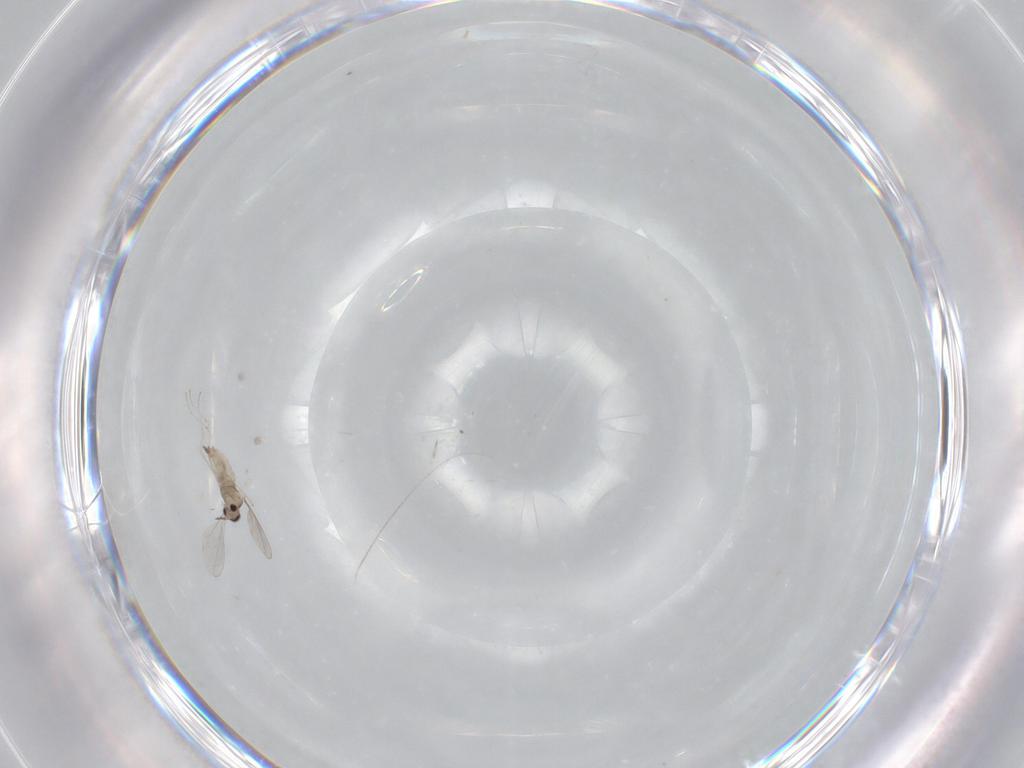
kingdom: Animalia
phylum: Arthropoda
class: Insecta
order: Diptera
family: Cecidomyiidae
